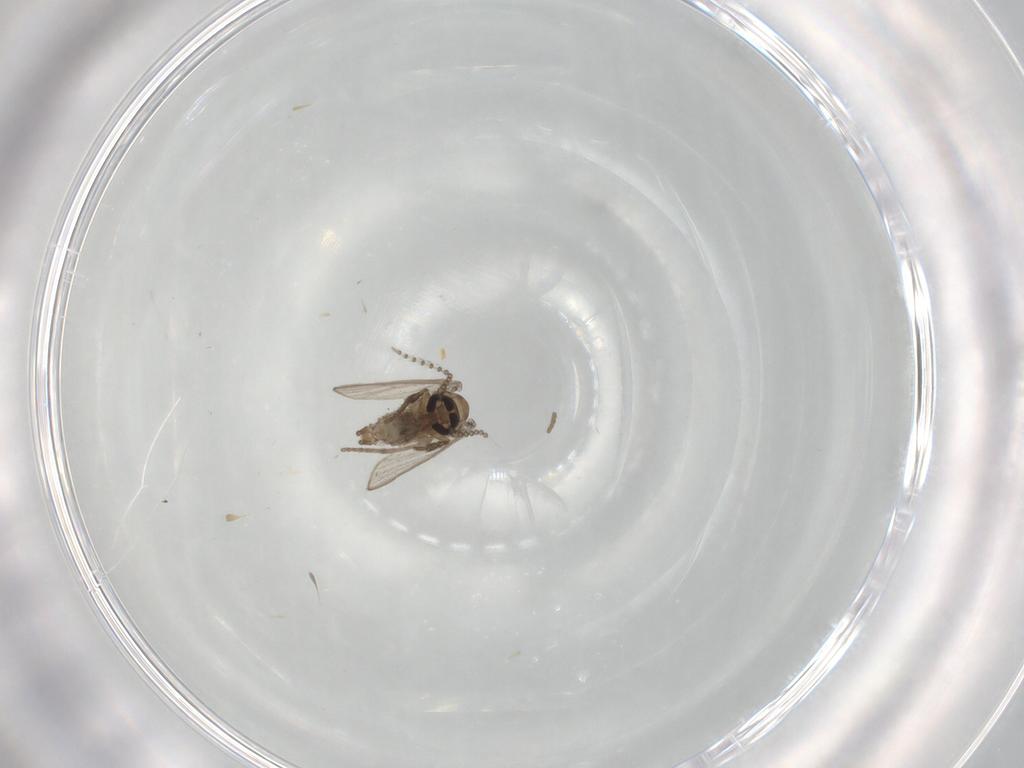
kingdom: Animalia
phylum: Arthropoda
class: Insecta
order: Diptera
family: Psychodidae
